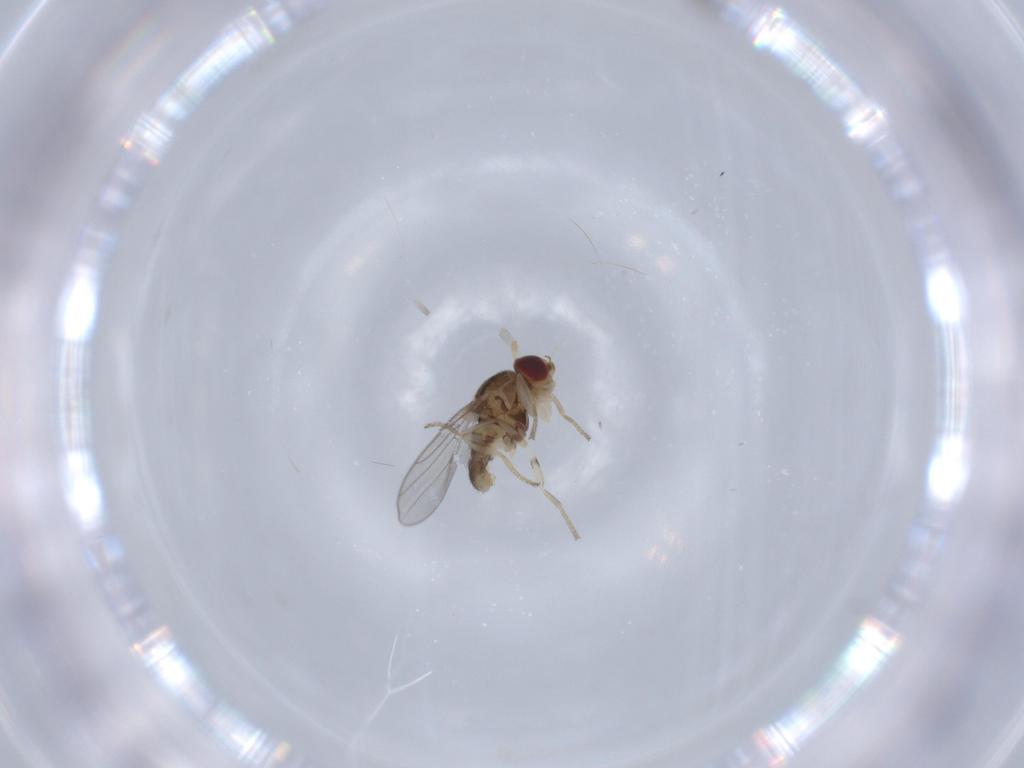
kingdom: Animalia
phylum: Arthropoda
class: Insecta
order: Diptera
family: Chloropidae
